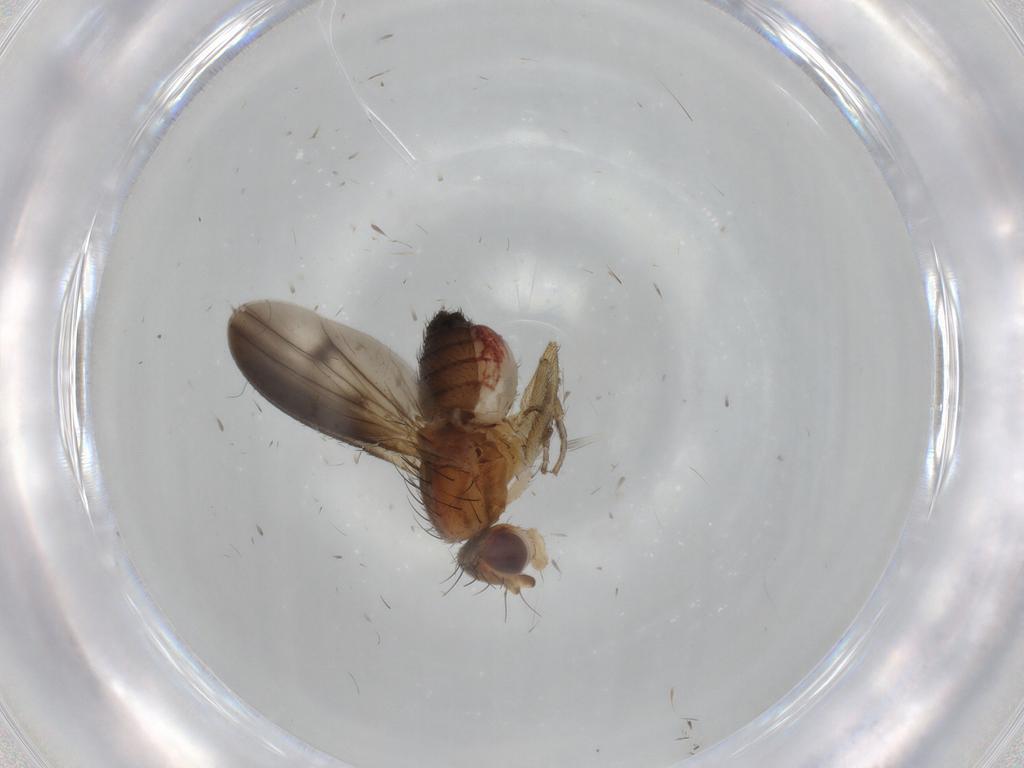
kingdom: Animalia
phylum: Arthropoda
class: Insecta
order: Diptera
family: Heleomyzidae
